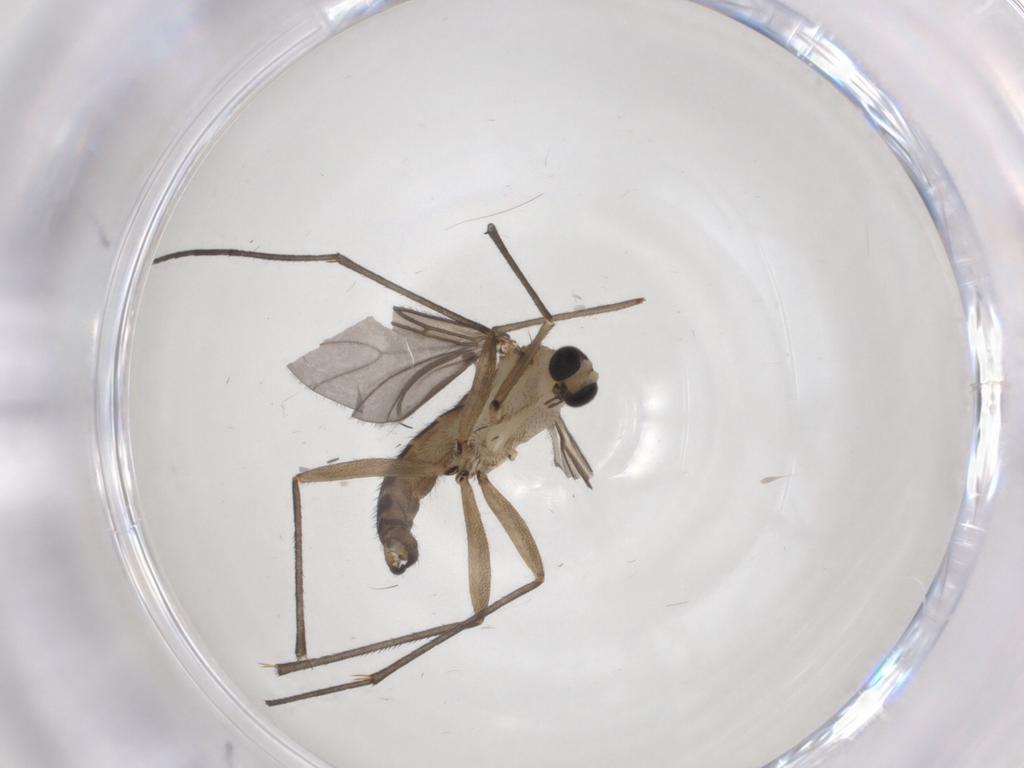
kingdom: Animalia
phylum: Arthropoda
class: Insecta
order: Diptera
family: Sciaridae
